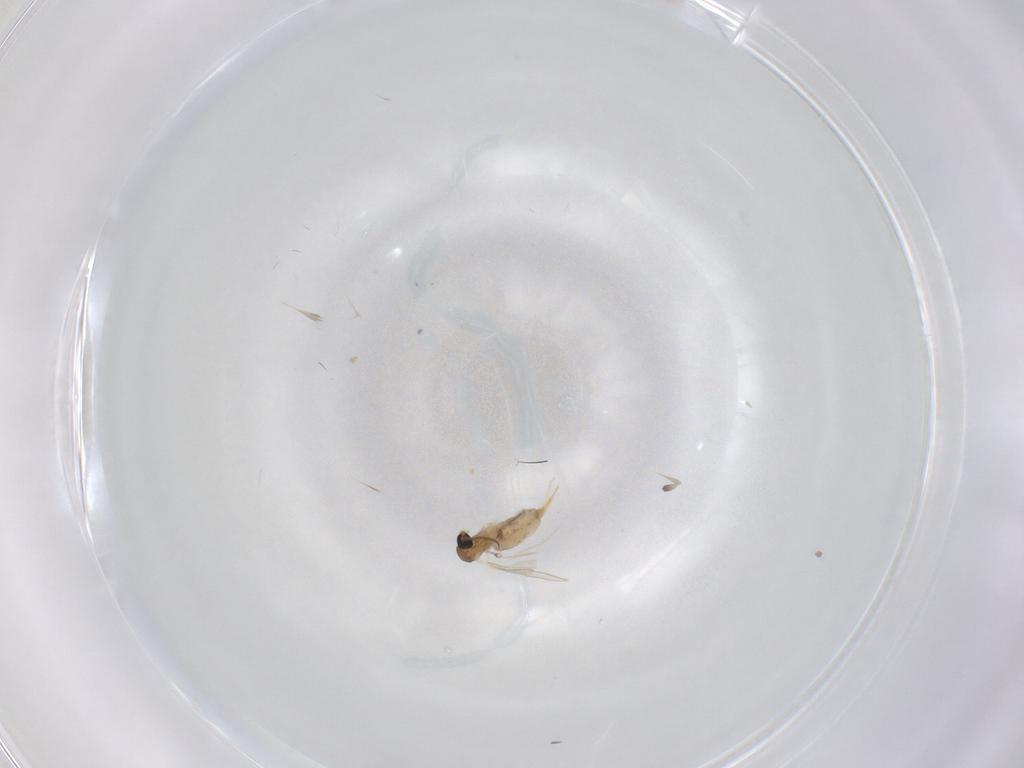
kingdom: Animalia
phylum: Arthropoda
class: Insecta
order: Diptera
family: Cecidomyiidae
